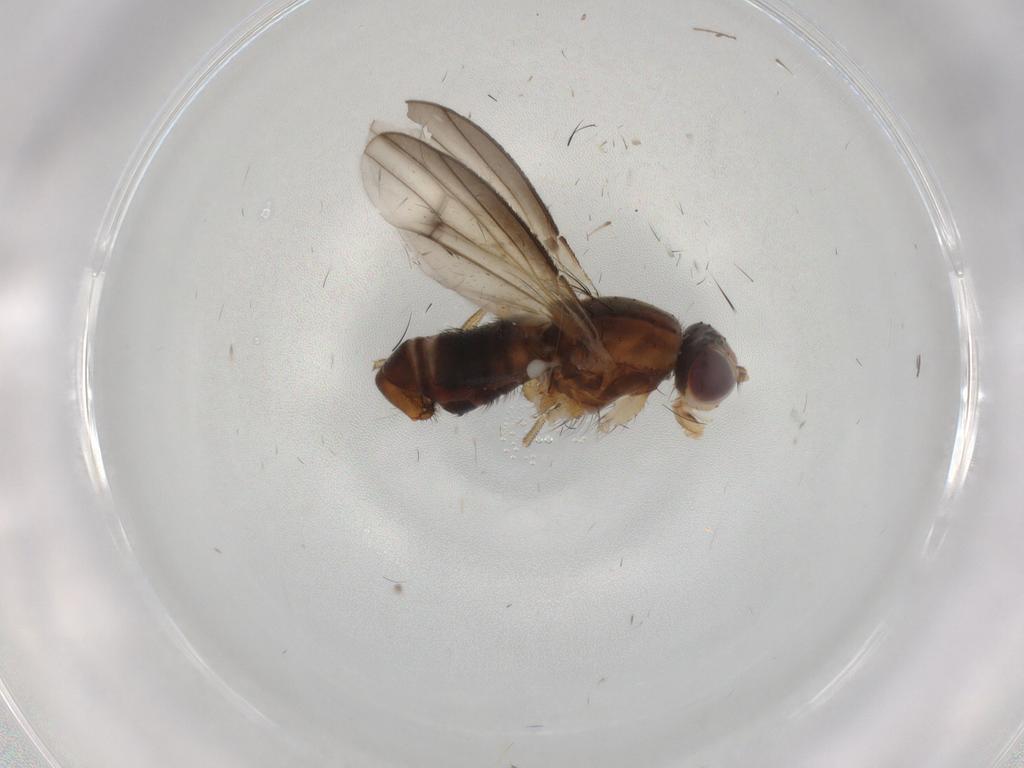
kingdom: Animalia
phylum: Arthropoda
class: Insecta
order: Diptera
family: Heleomyzidae
